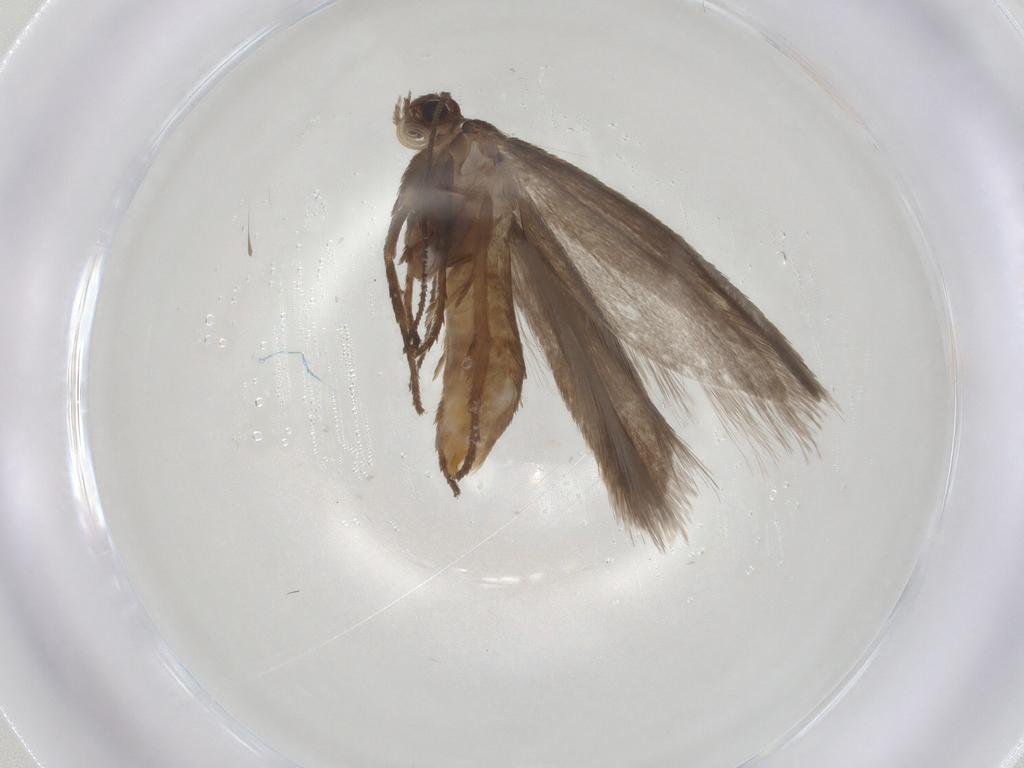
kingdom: Animalia
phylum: Arthropoda
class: Insecta
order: Lepidoptera
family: Limacodidae
